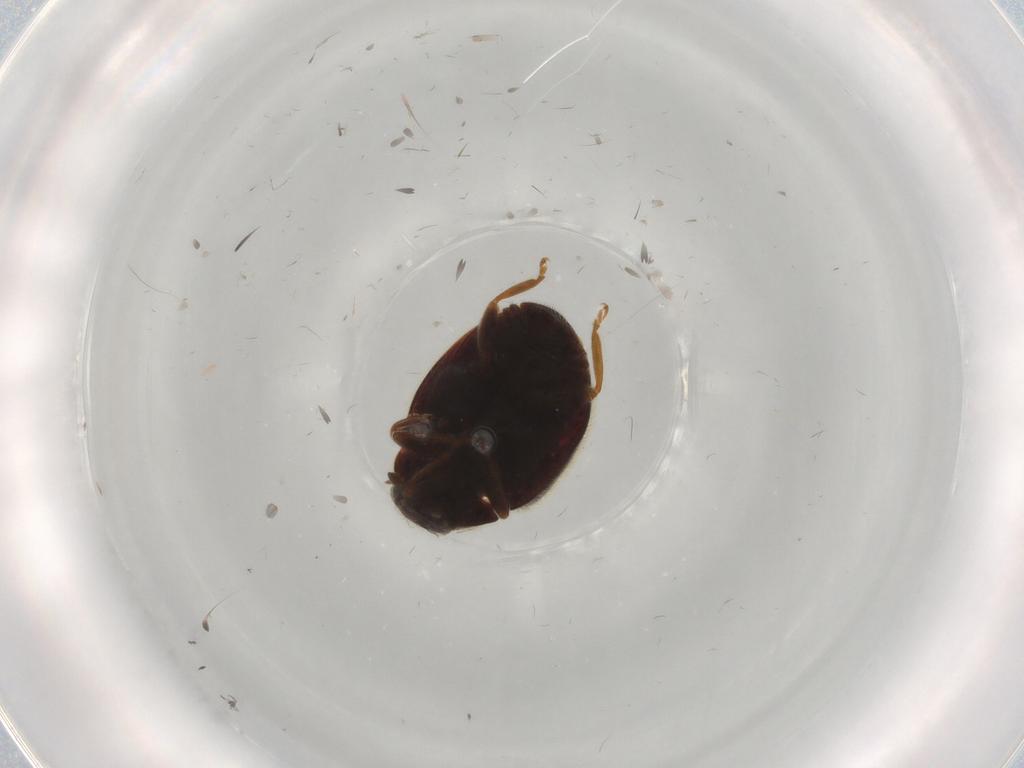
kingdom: Animalia
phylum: Arthropoda
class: Insecta
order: Coleoptera
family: Coccinellidae
